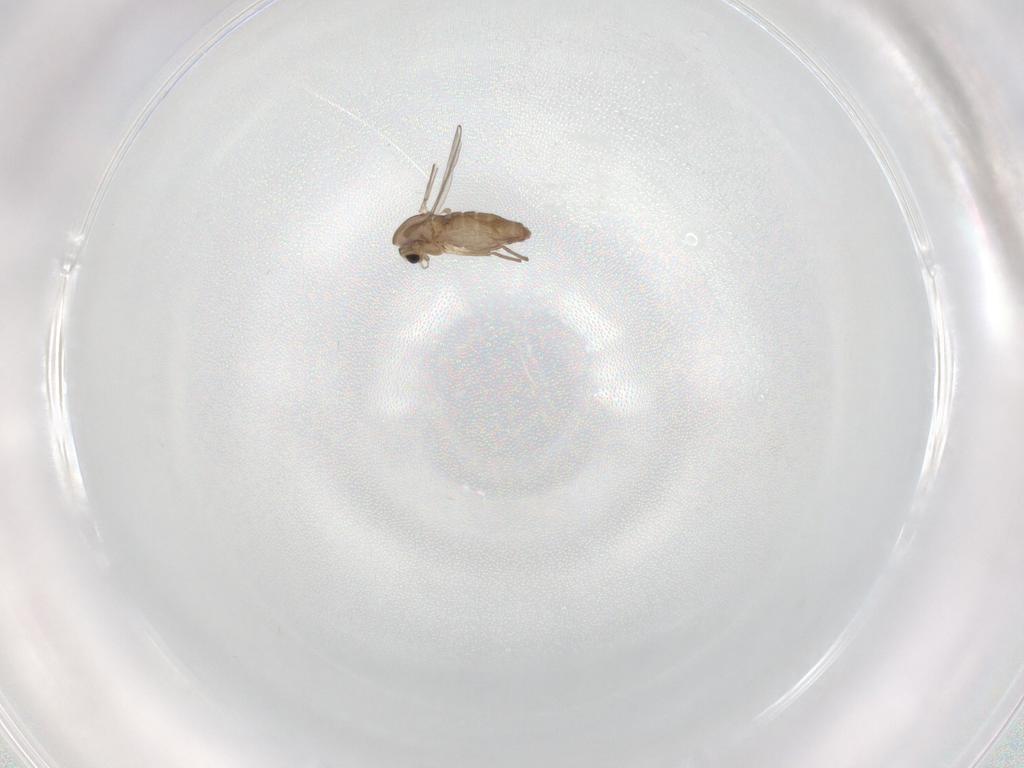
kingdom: Animalia
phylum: Arthropoda
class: Insecta
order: Diptera
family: Chironomidae
